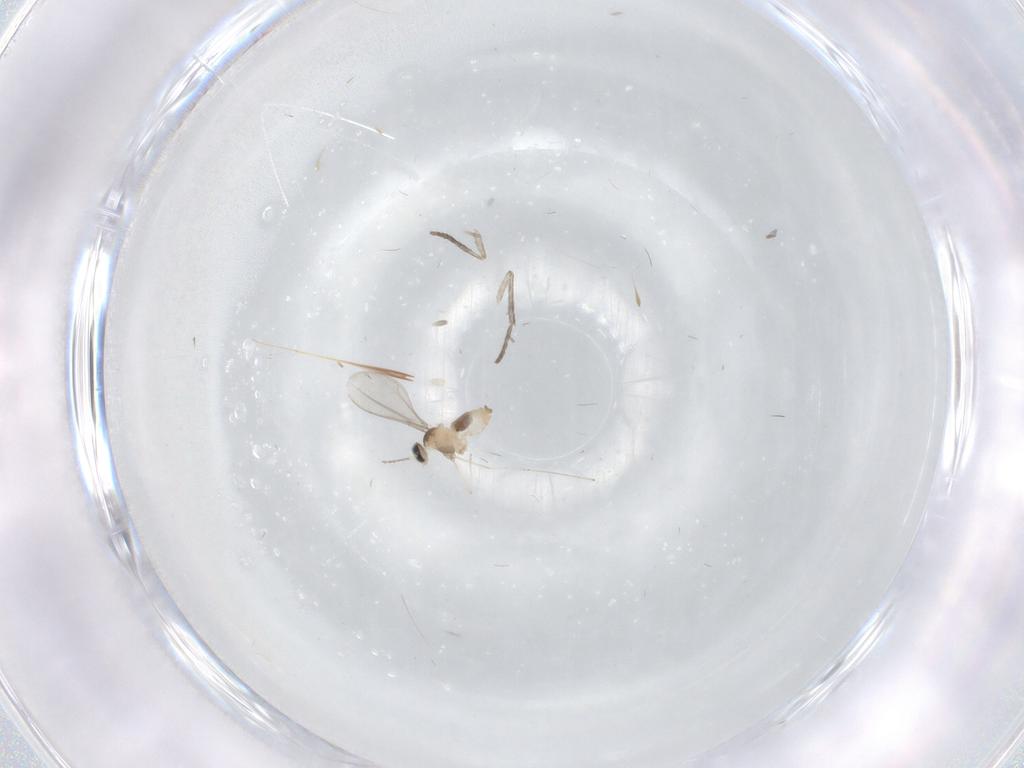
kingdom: Animalia
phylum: Arthropoda
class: Insecta
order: Diptera
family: Cecidomyiidae
